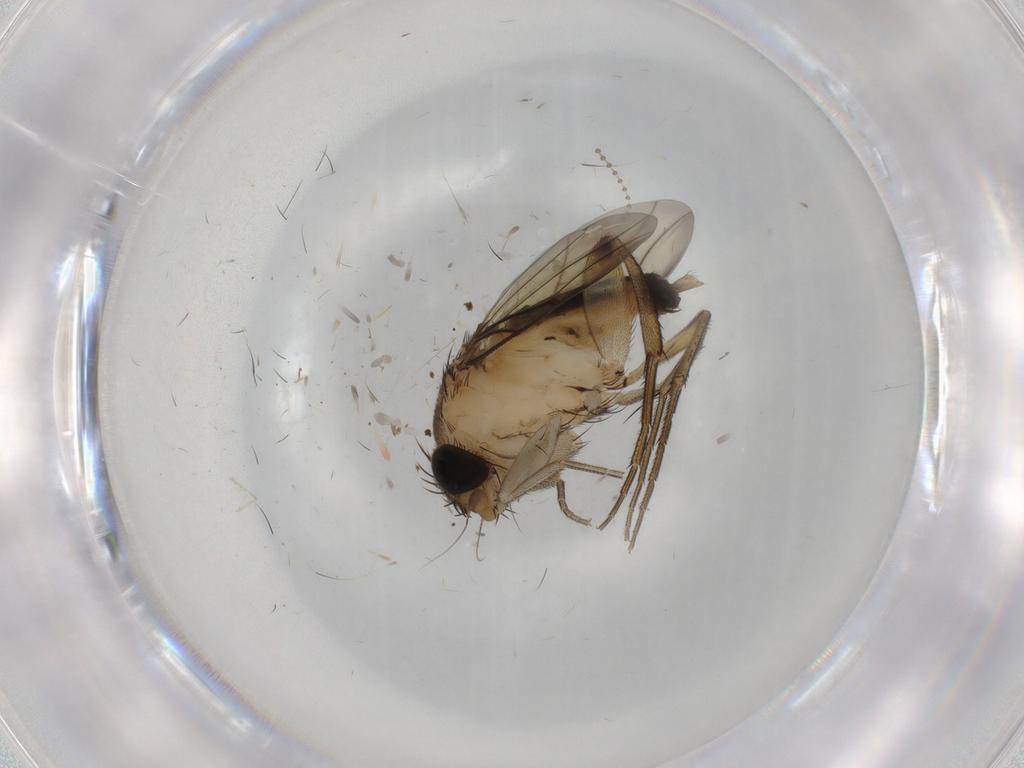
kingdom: Animalia
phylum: Arthropoda
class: Insecta
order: Diptera
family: Phoridae
